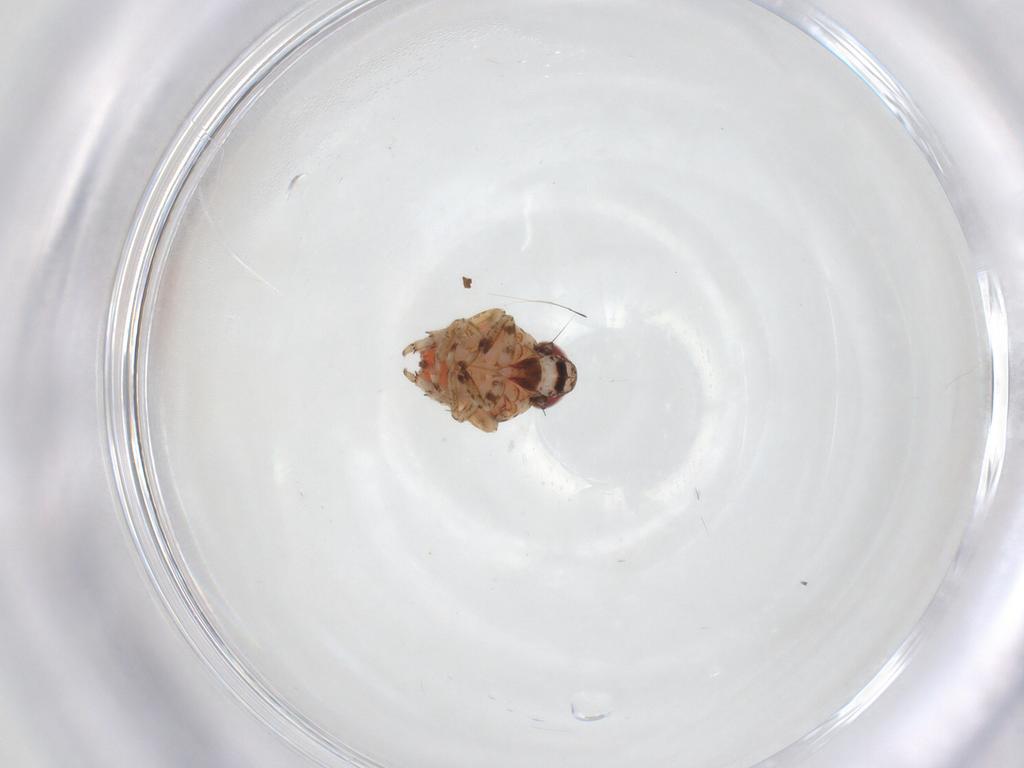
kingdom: Animalia
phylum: Arthropoda
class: Insecta
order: Hemiptera
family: Issidae
